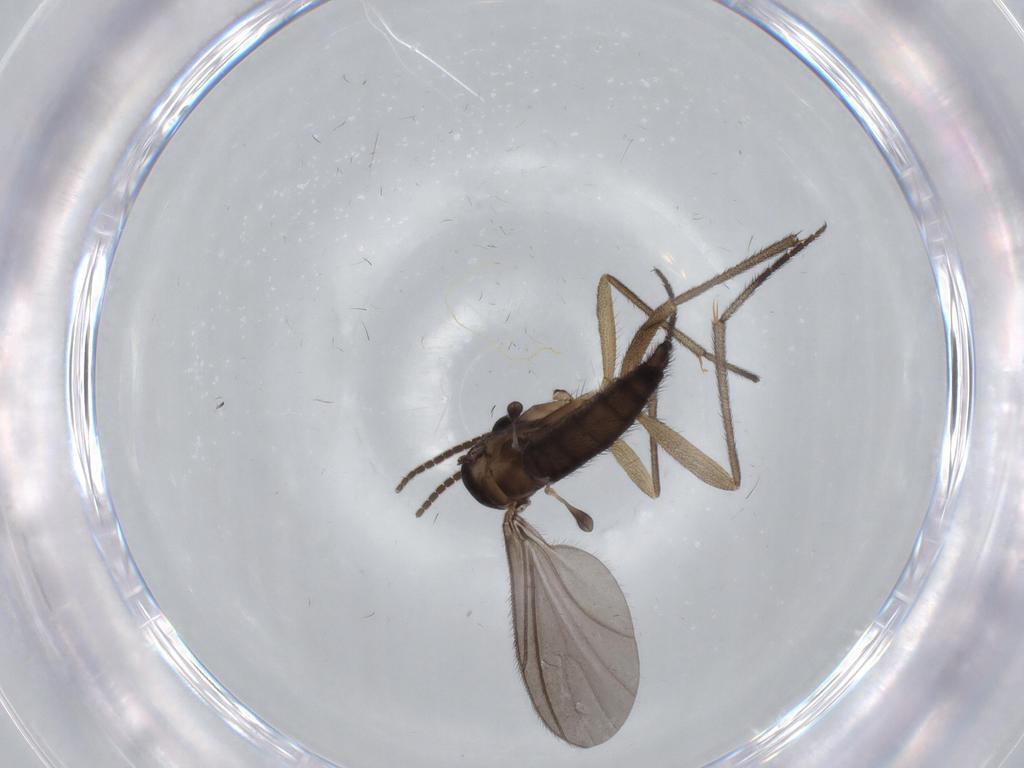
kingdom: Animalia
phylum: Arthropoda
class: Insecta
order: Diptera
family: Sciaridae
